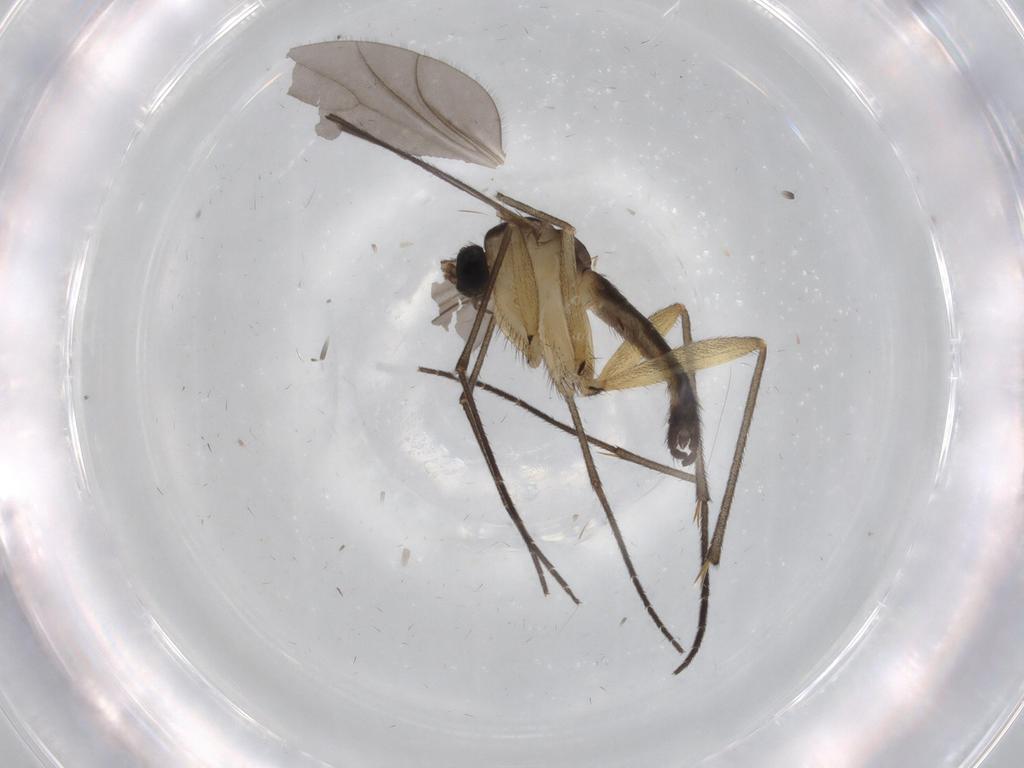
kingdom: Animalia
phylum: Arthropoda
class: Insecta
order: Diptera
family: Sciaridae
